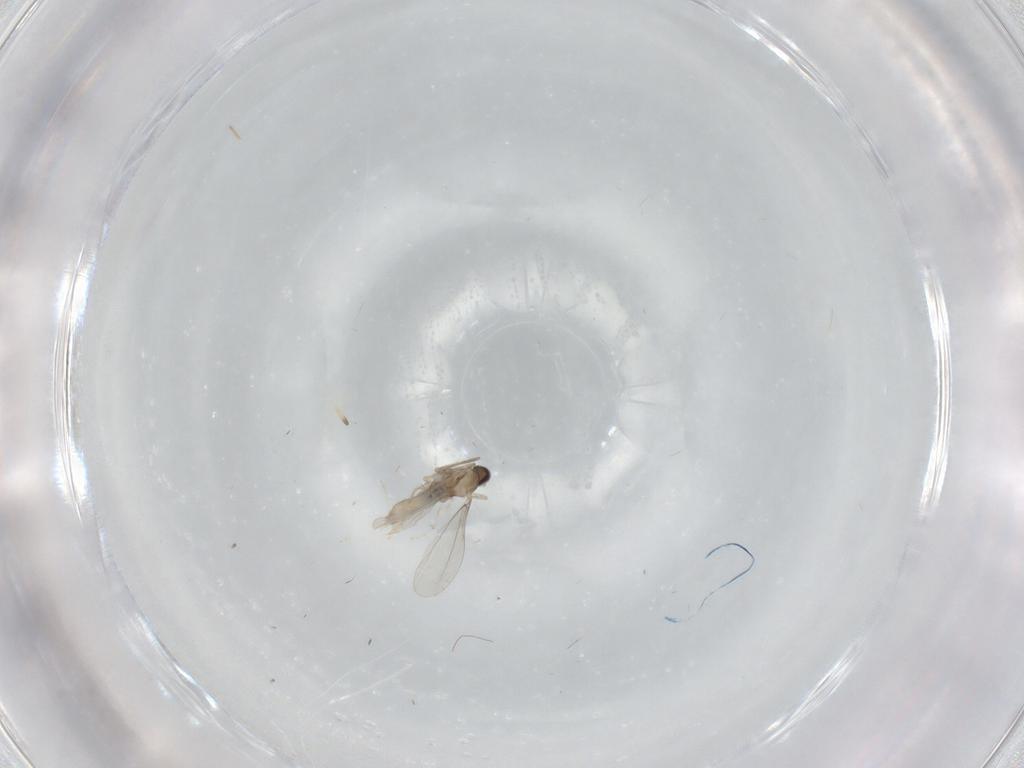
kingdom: Animalia
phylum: Arthropoda
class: Insecta
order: Diptera
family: Cecidomyiidae
